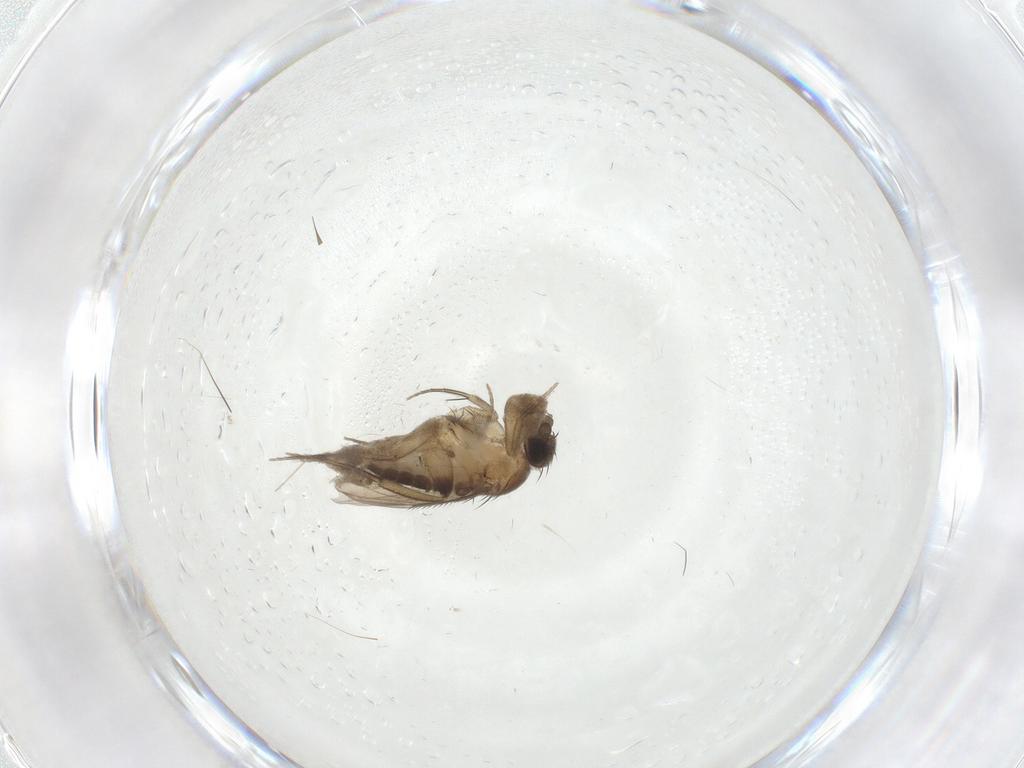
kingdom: Animalia
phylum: Arthropoda
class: Insecta
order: Diptera
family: Phoridae
